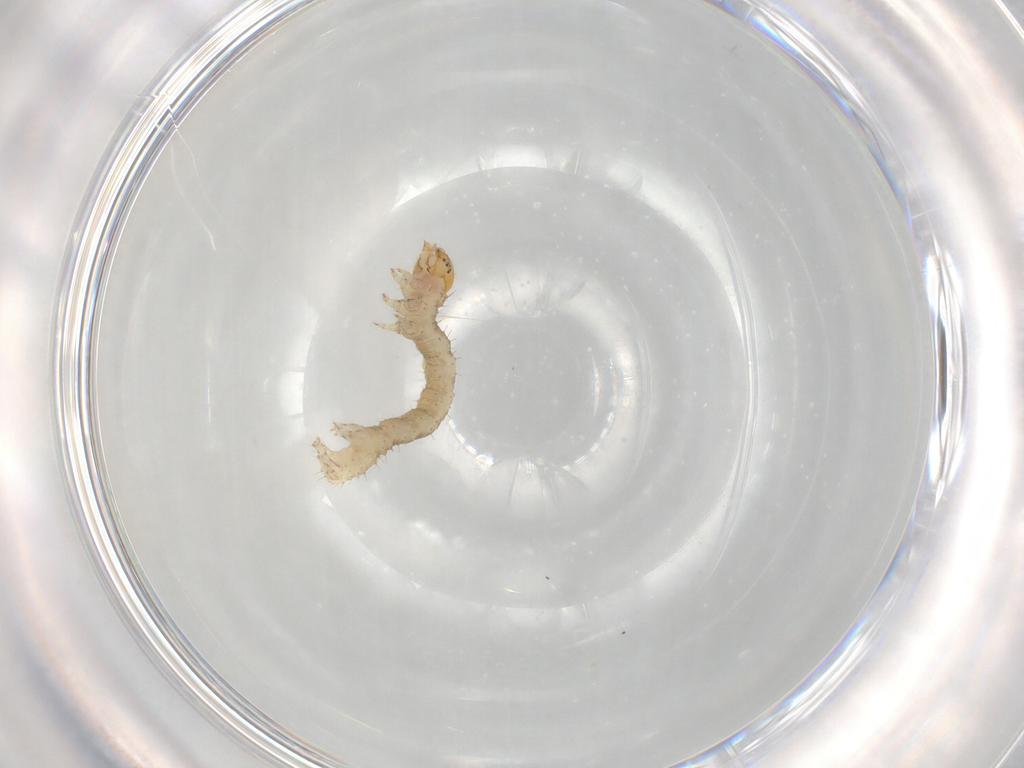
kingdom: Animalia
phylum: Arthropoda
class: Insecta
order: Lepidoptera
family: Geometridae
